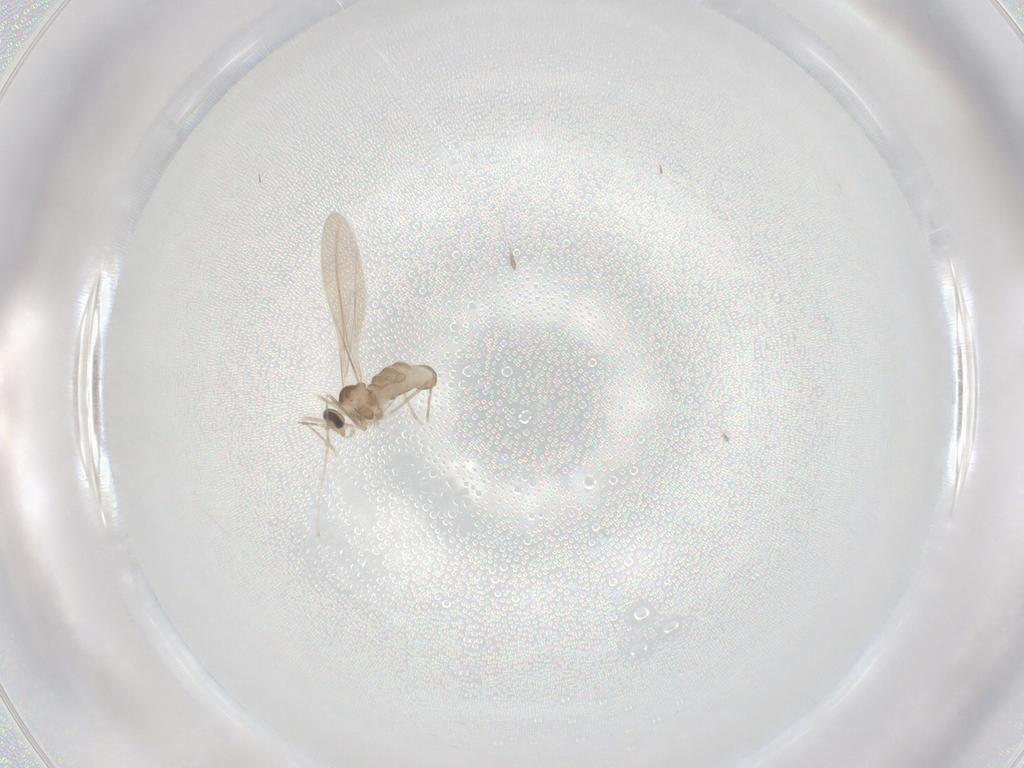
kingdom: Animalia
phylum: Arthropoda
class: Insecta
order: Diptera
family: Cecidomyiidae
